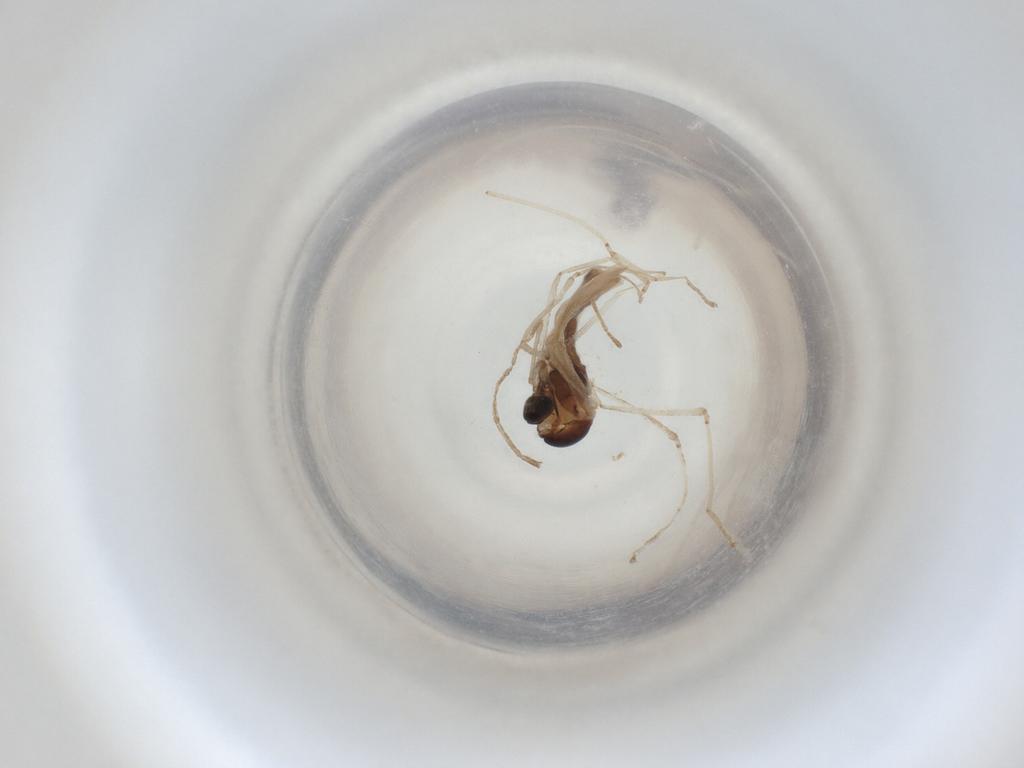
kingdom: Animalia
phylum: Arthropoda
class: Insecta
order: Diptera
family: Cecidomyiidae
